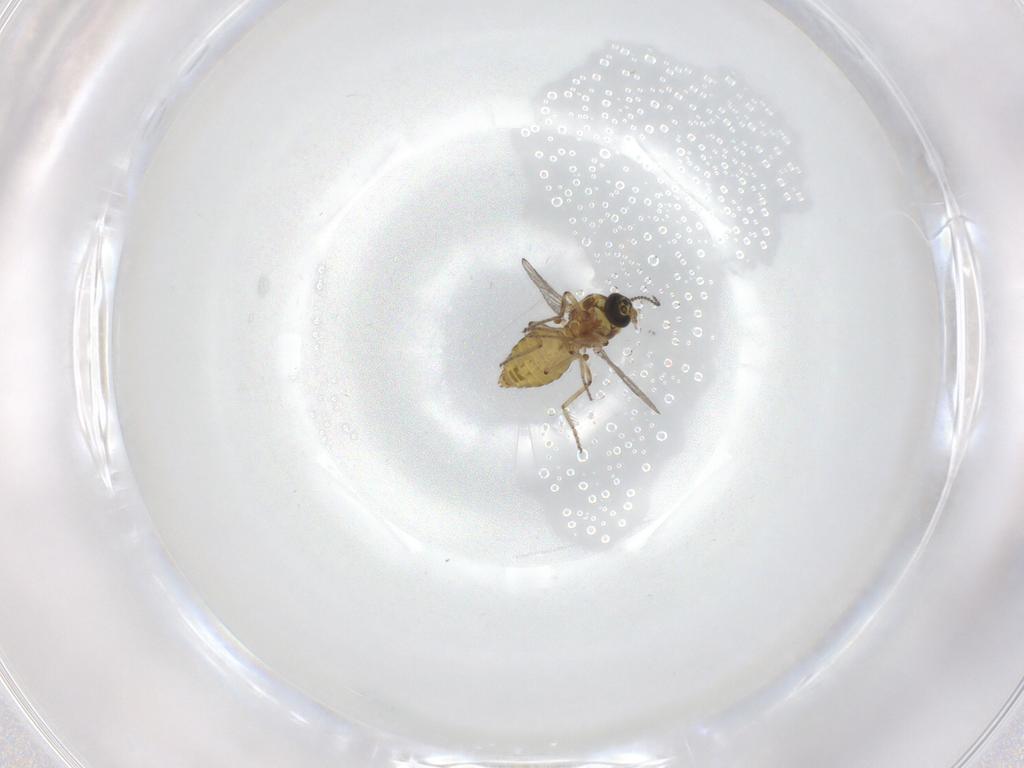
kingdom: Animalia
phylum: Arthropoda
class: Insecta
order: Diptera
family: Ceratopogonidae
